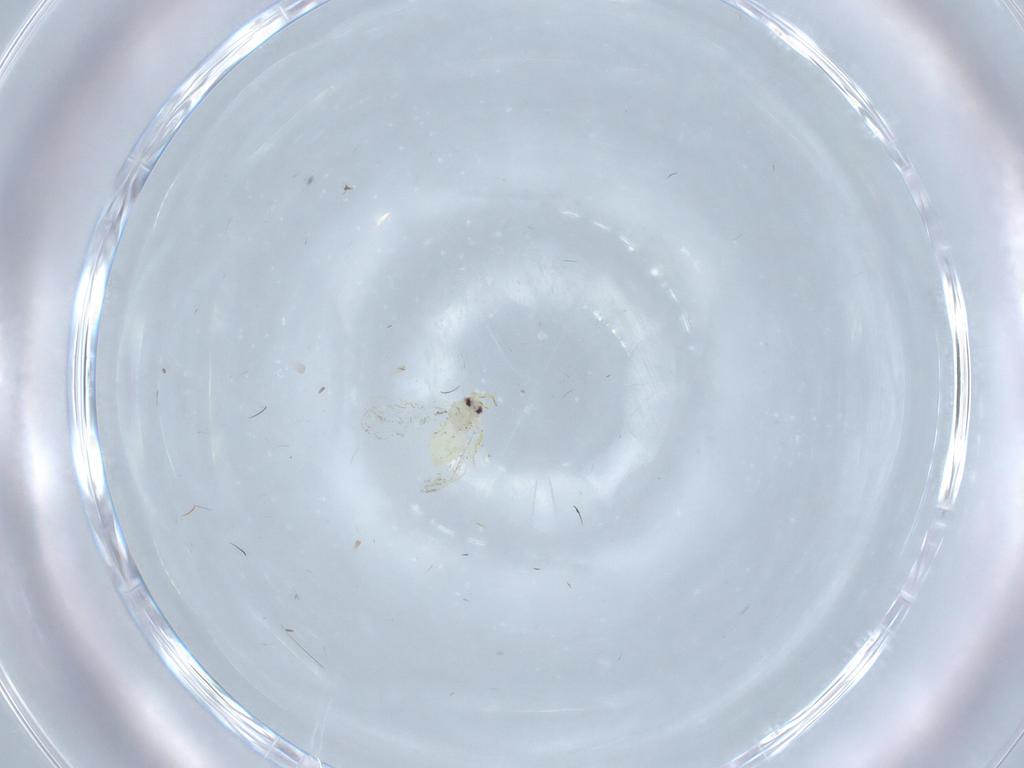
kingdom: Animalia
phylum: Arthropoda
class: Insecta
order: Hemiptera
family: Aleyrodidae
